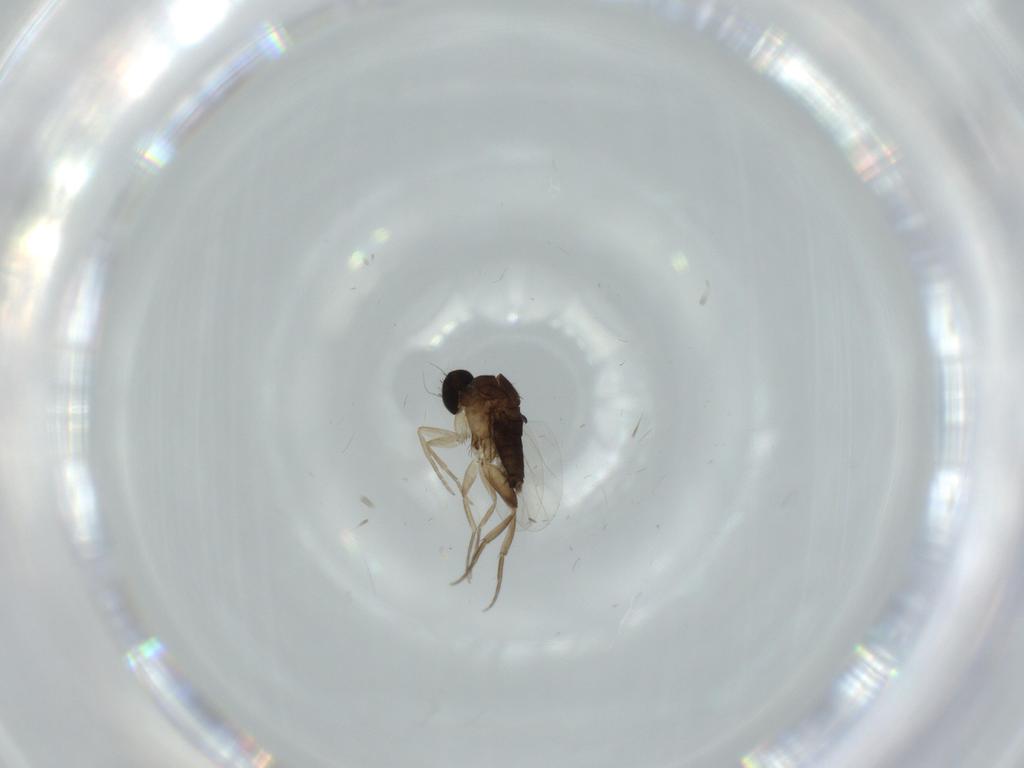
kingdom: Animalia
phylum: Arthropoda
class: Insecta
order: Diptera
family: Phoridae
